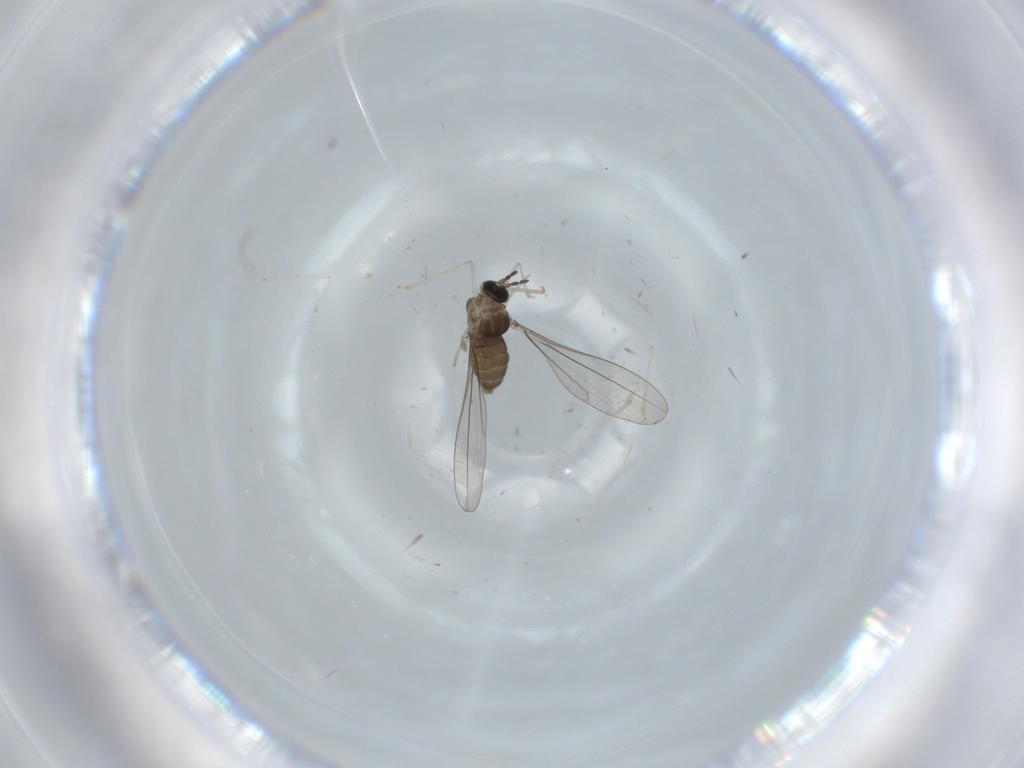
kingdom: Animalia
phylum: Arthropoda
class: Insecta
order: Diptera
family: Cecidomyiidae
